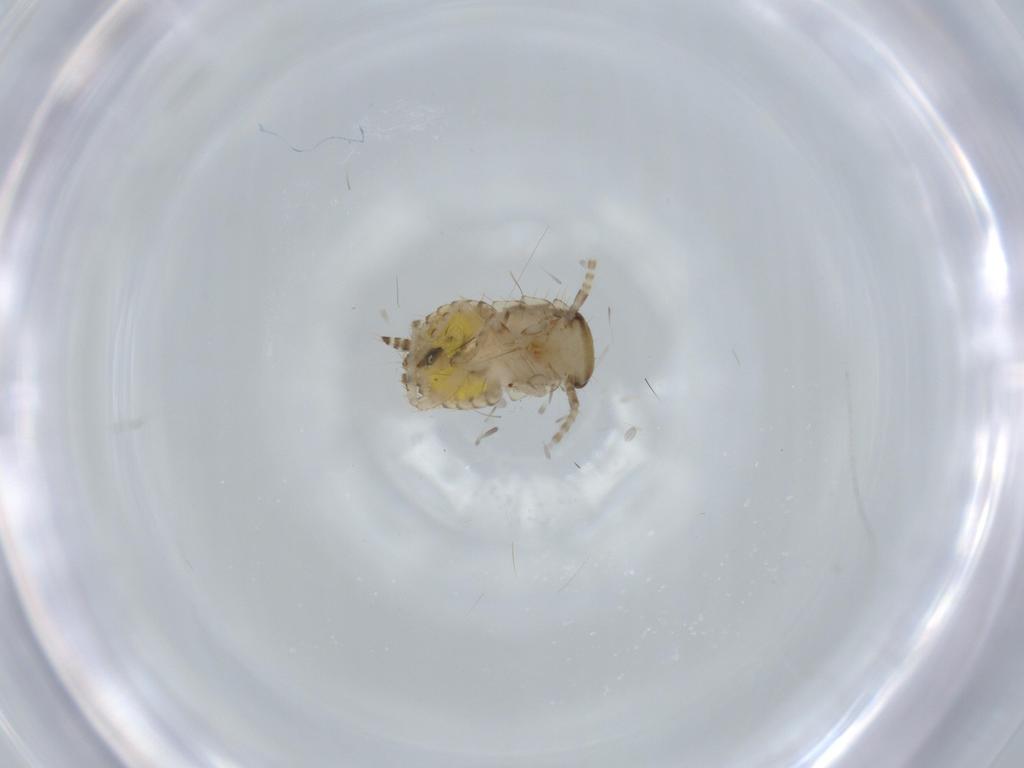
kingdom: Animalia
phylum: Arthropoda
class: Insecta
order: Blattodea
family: Ectobiidae
